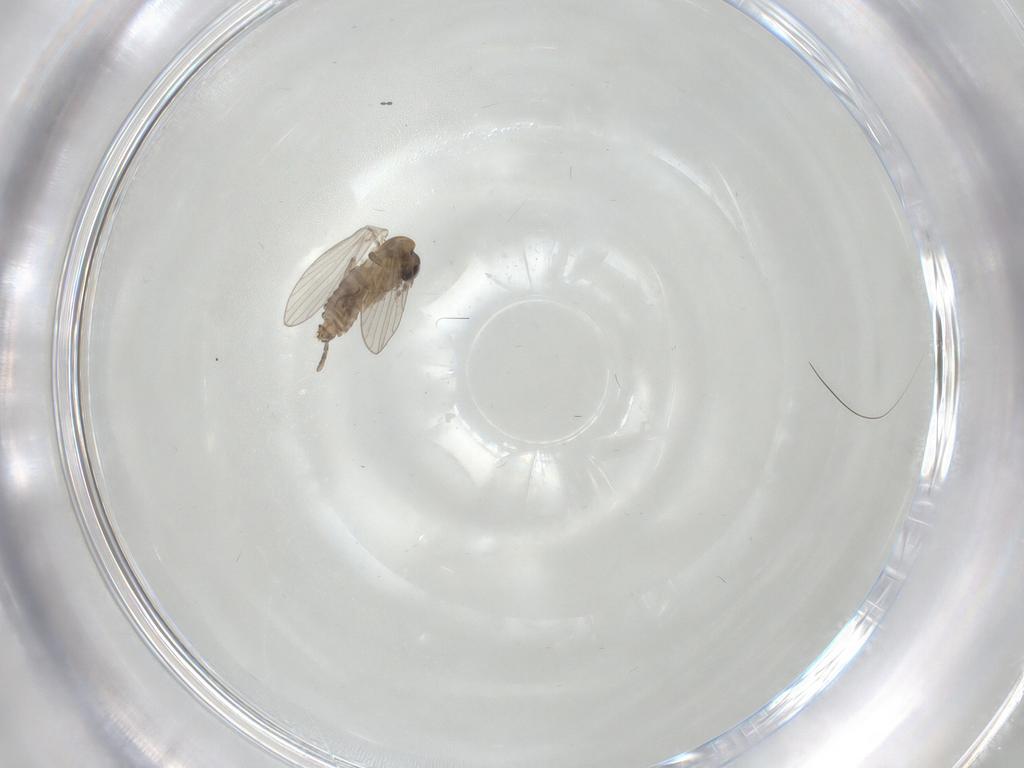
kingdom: Animalia
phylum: Arthropoda
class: Insecta
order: Diptera
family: Cecidomyiidae
